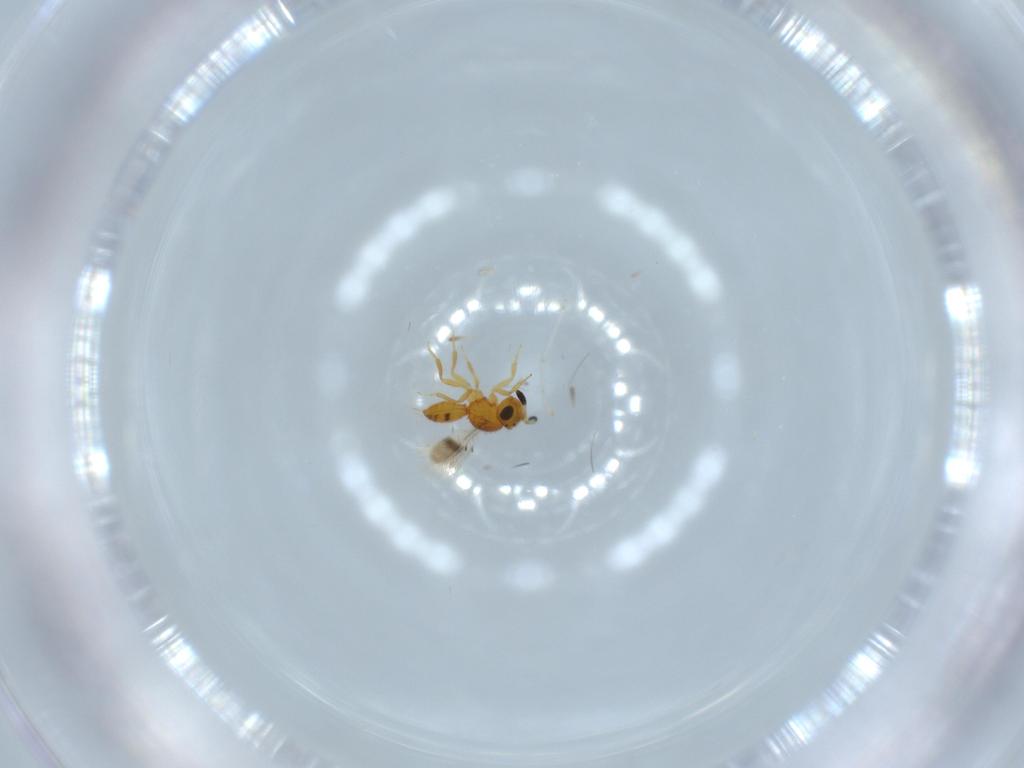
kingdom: Animalia
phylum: Arthropoda
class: Insecta
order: Hymenoptera
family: Scelionidae
